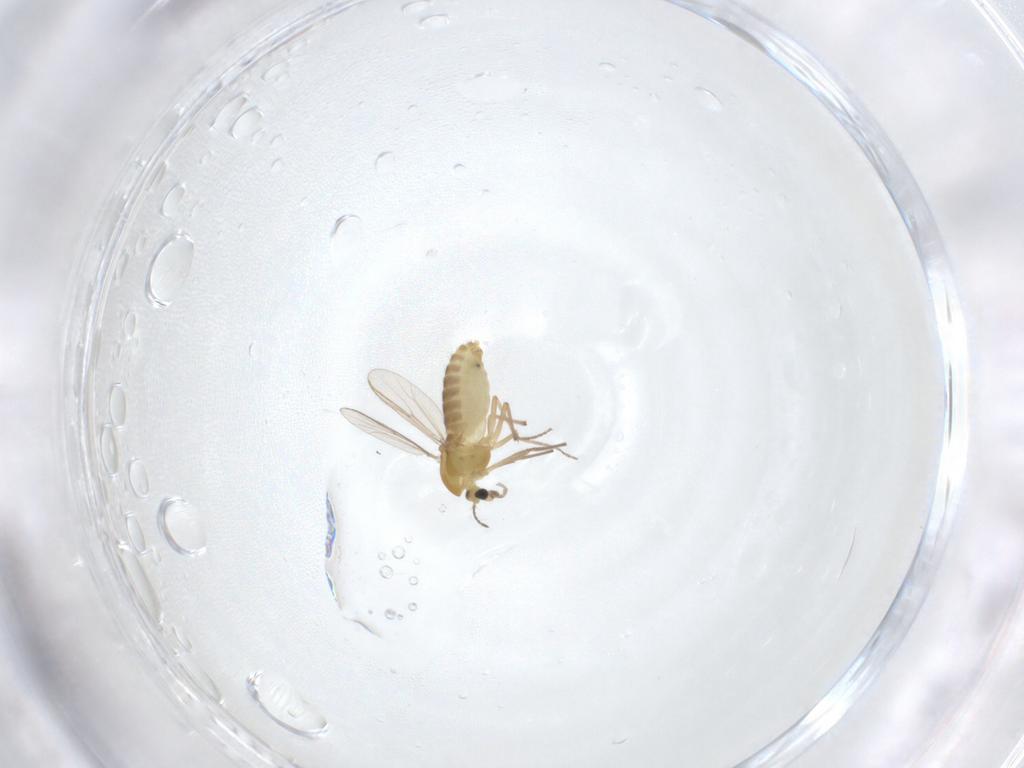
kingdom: Animalia
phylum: Arthropoda
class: Insecta
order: Diptera
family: Chironomidae
